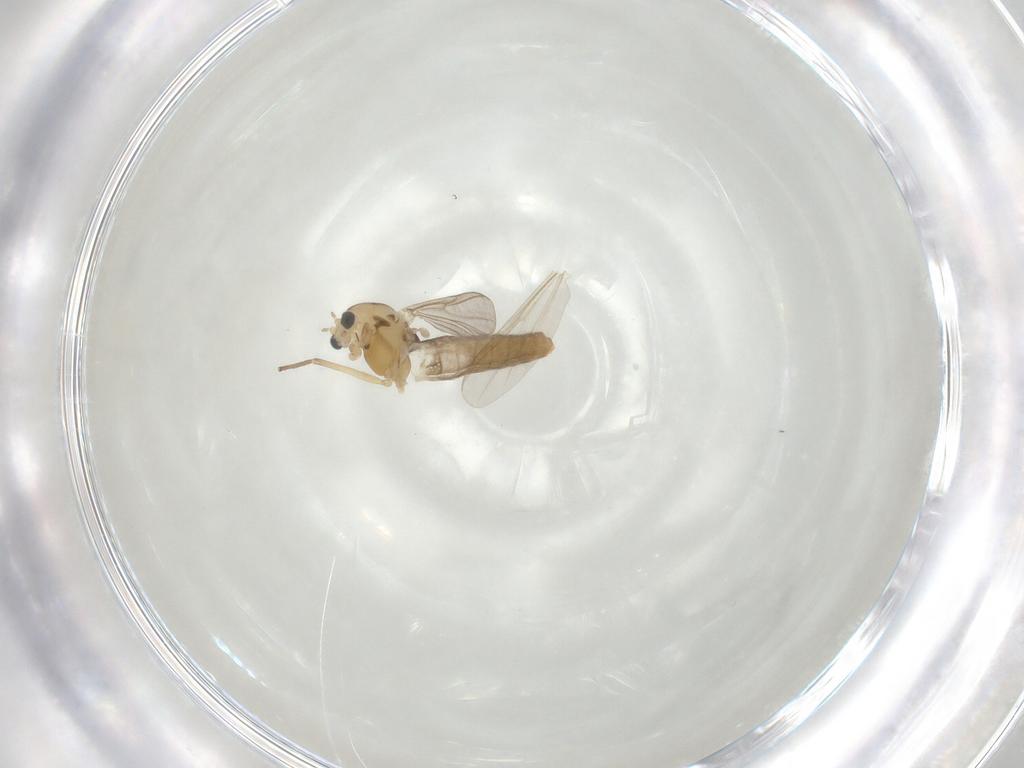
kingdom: Animalia
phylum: Arthropoda
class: Insecta
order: Diptera
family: Chironomidae
